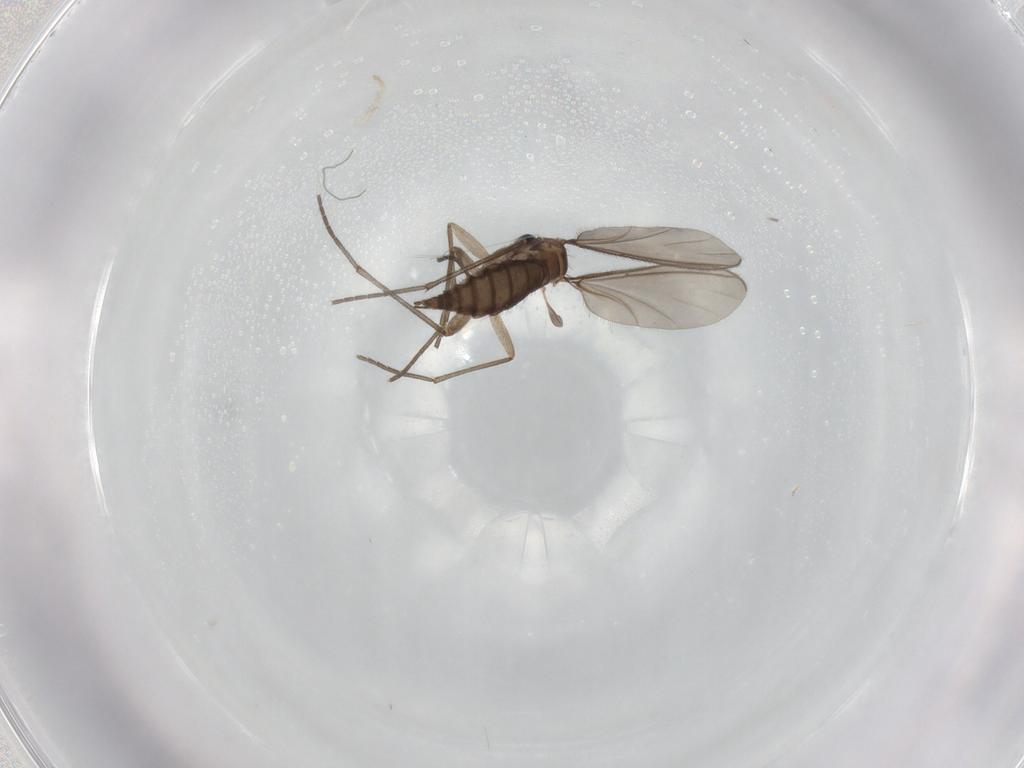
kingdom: Animalia
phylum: Arthropoda
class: Insecta
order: Diptera
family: Sciaridae
